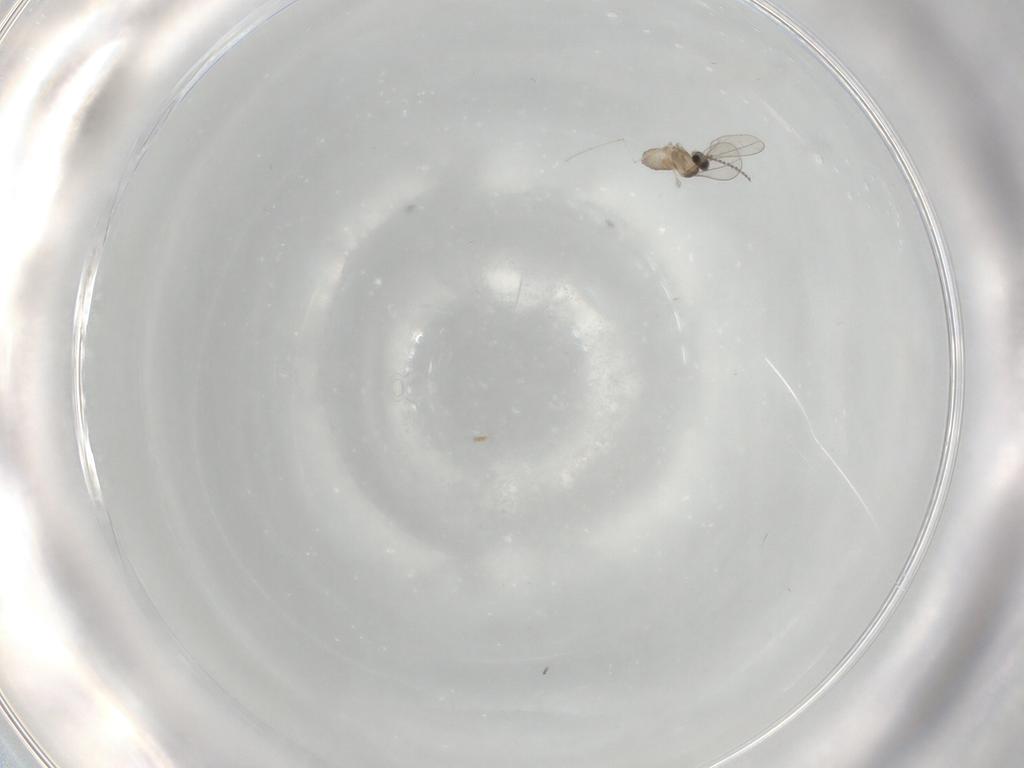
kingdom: Animalia
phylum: Arthropoda
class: Insecta
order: Diptera
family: Cecidomyiidae
